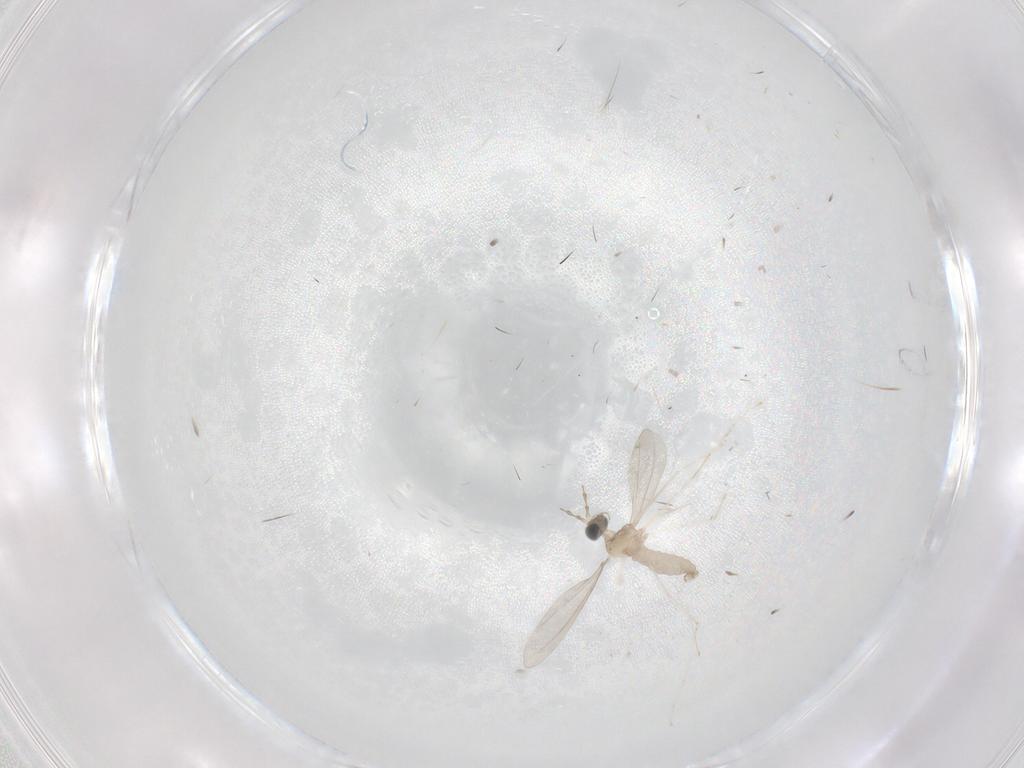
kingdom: Animalia
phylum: Arthropoda
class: Insecta
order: Diptera
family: Cecidomyiidae
